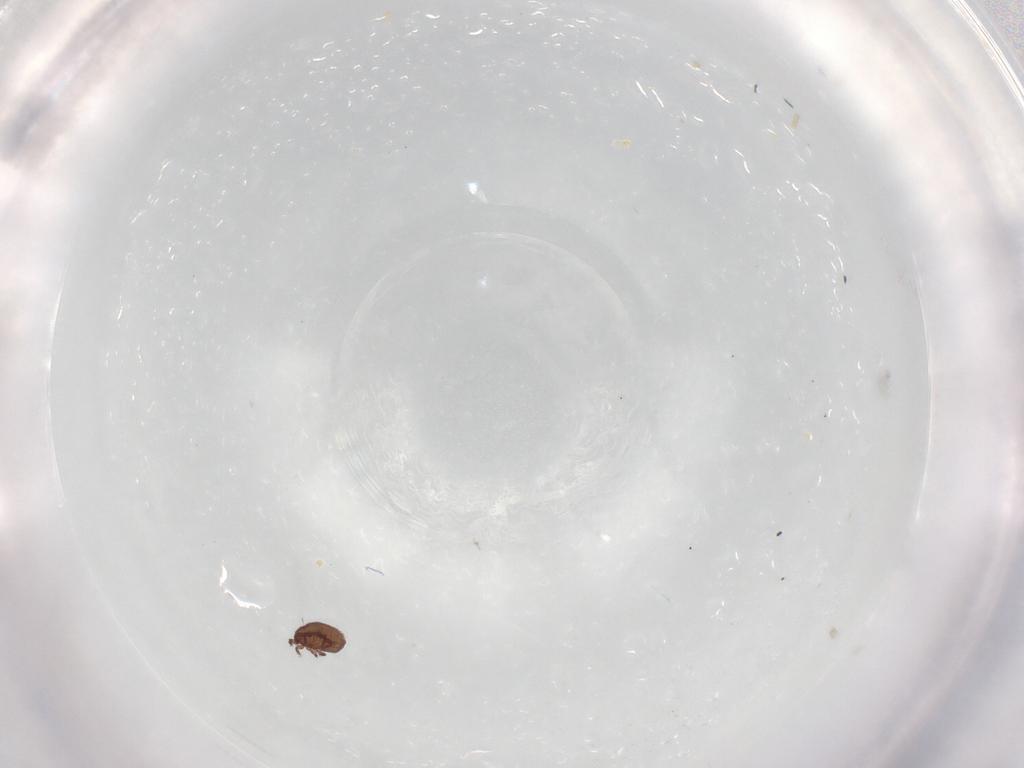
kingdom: Animalia
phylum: Arthropoda
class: Arachnida
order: Sarcoptiformes
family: Achipteriidae
